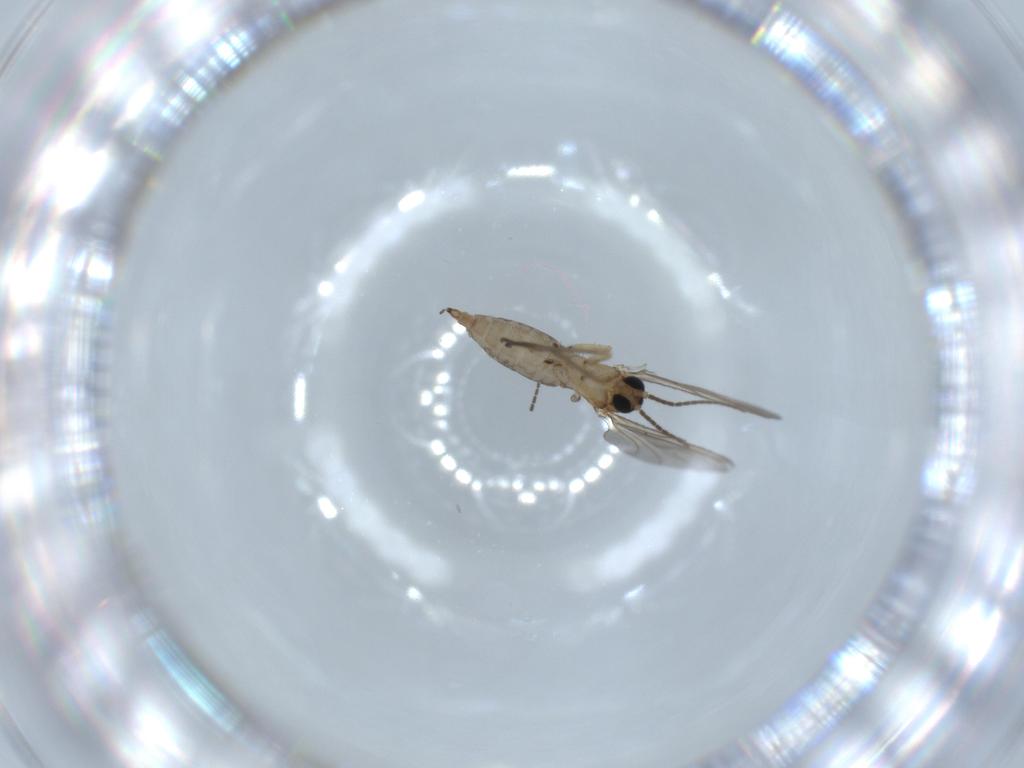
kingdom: Animalia
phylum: Arthropoda
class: Insecta
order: Diptera
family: Sciaridae
